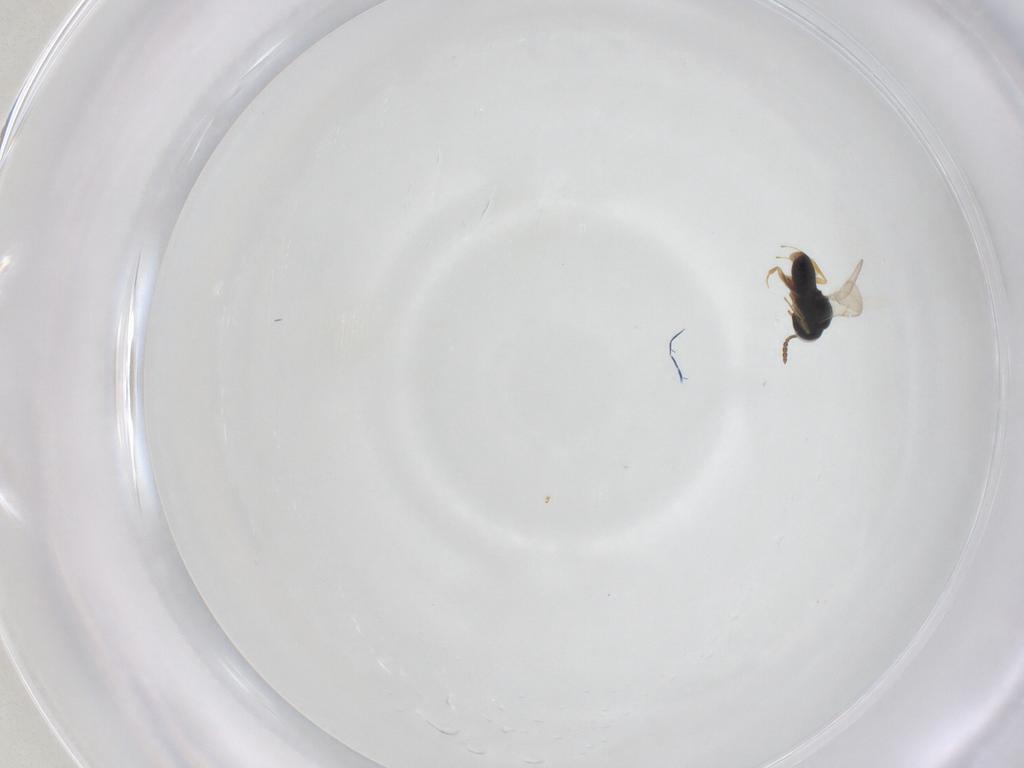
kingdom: Animalia
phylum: Arthropoda
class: Insecta
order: Hymenoptera
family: Scelionidae
